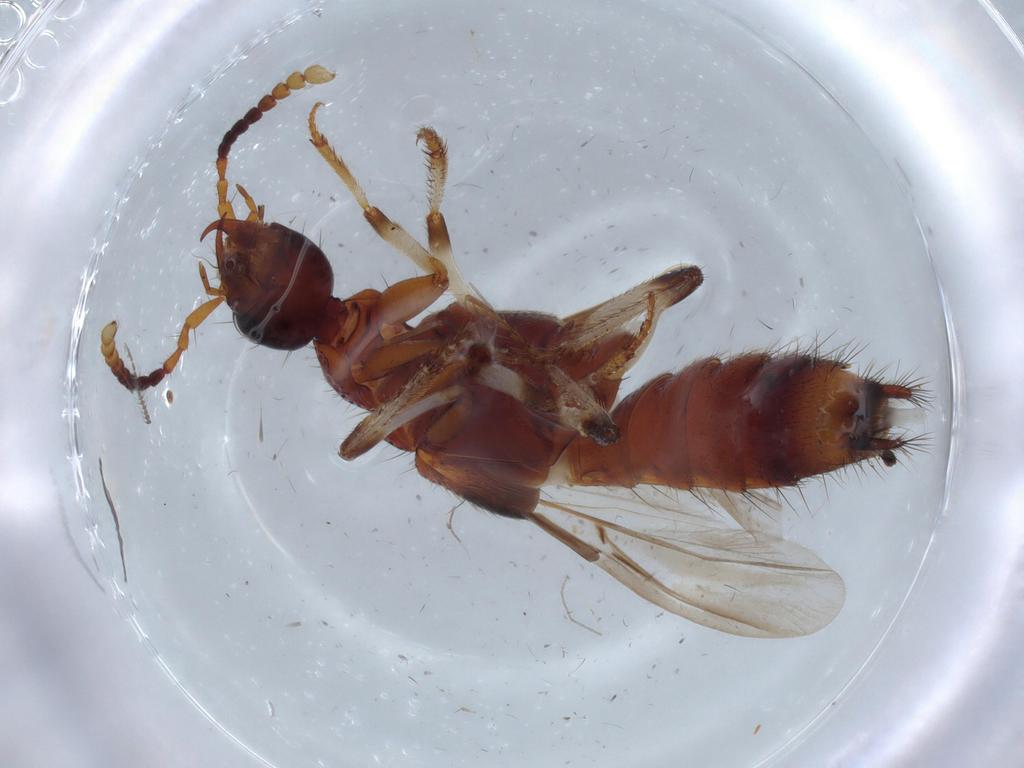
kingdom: Animalia
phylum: Arthropoda
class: Insecta
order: Coleoptera
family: Staphylinidae
